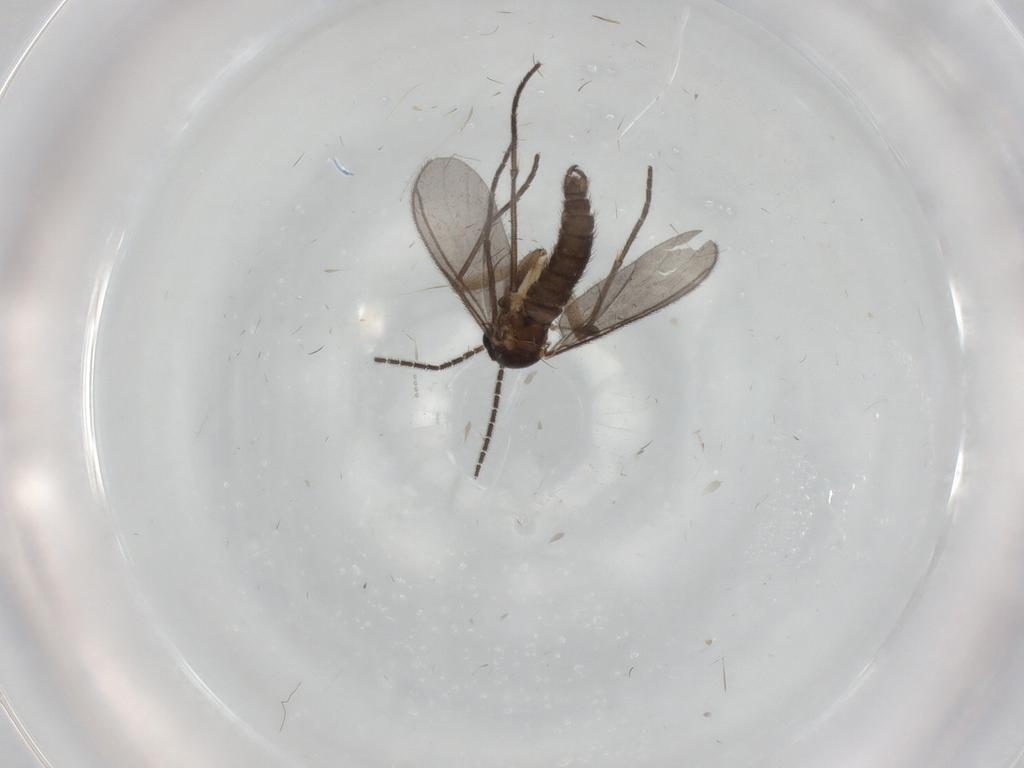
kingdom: Animalia
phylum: Arthropoda
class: Insecta
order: Diptera
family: Sciaridae
